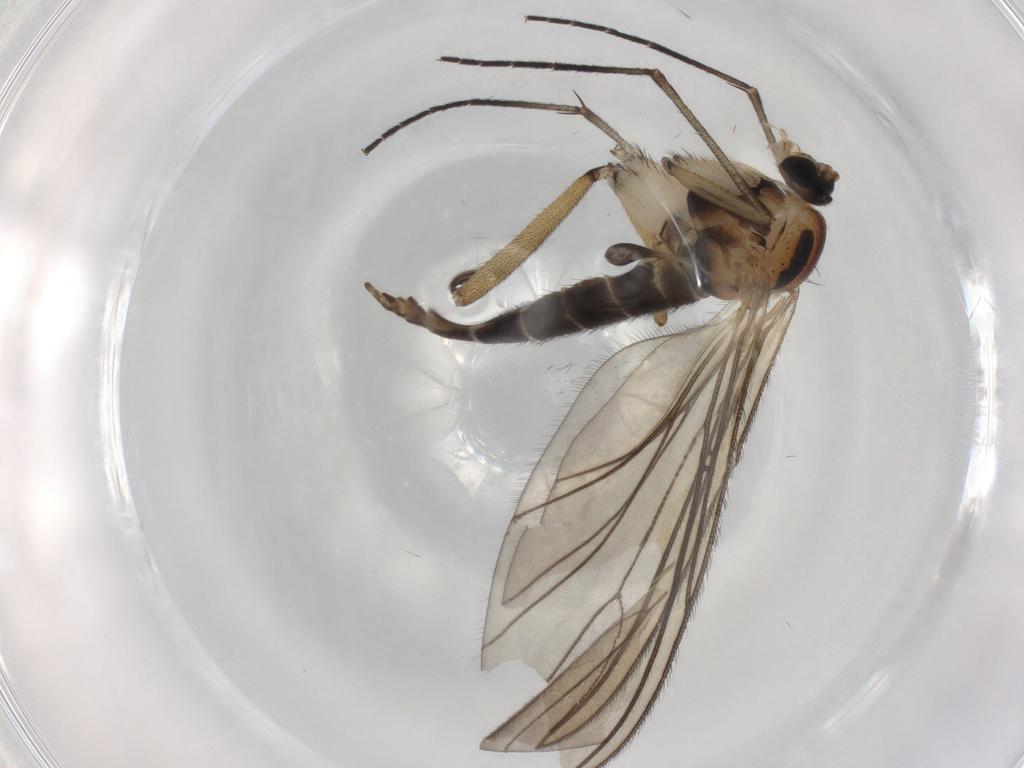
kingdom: Animalia
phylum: Arthropoda
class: Insecta
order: Diptera
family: Sciaridae
